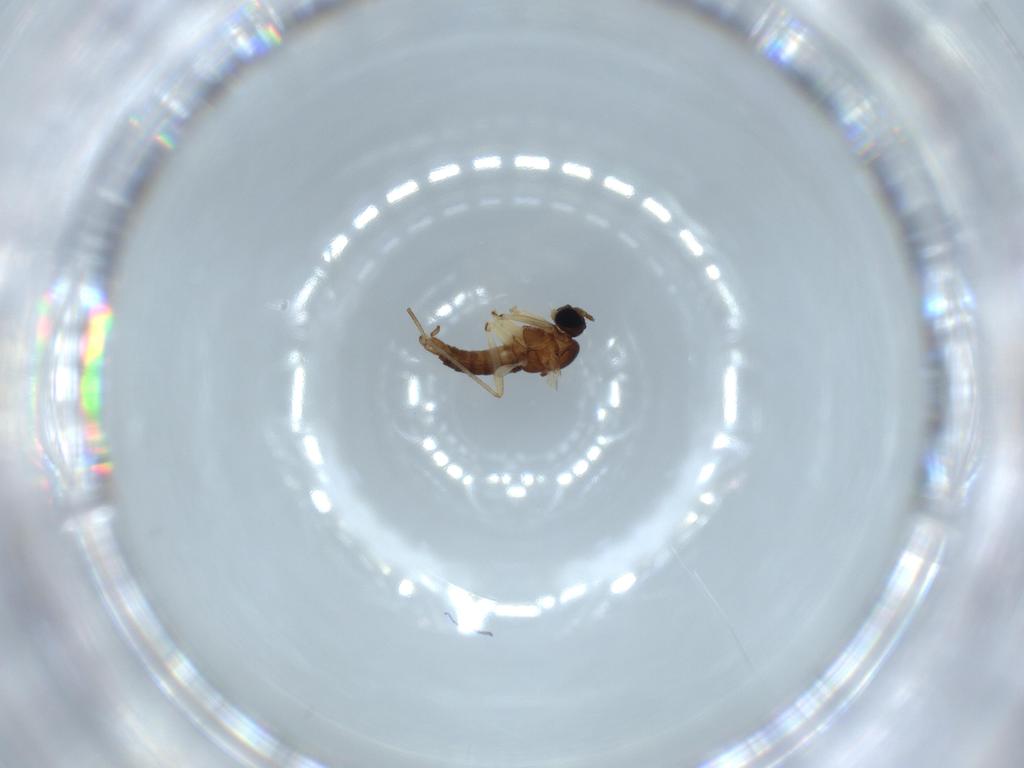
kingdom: Animalia
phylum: Arthropoda
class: Insecta
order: Diptera
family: Sciaridae
